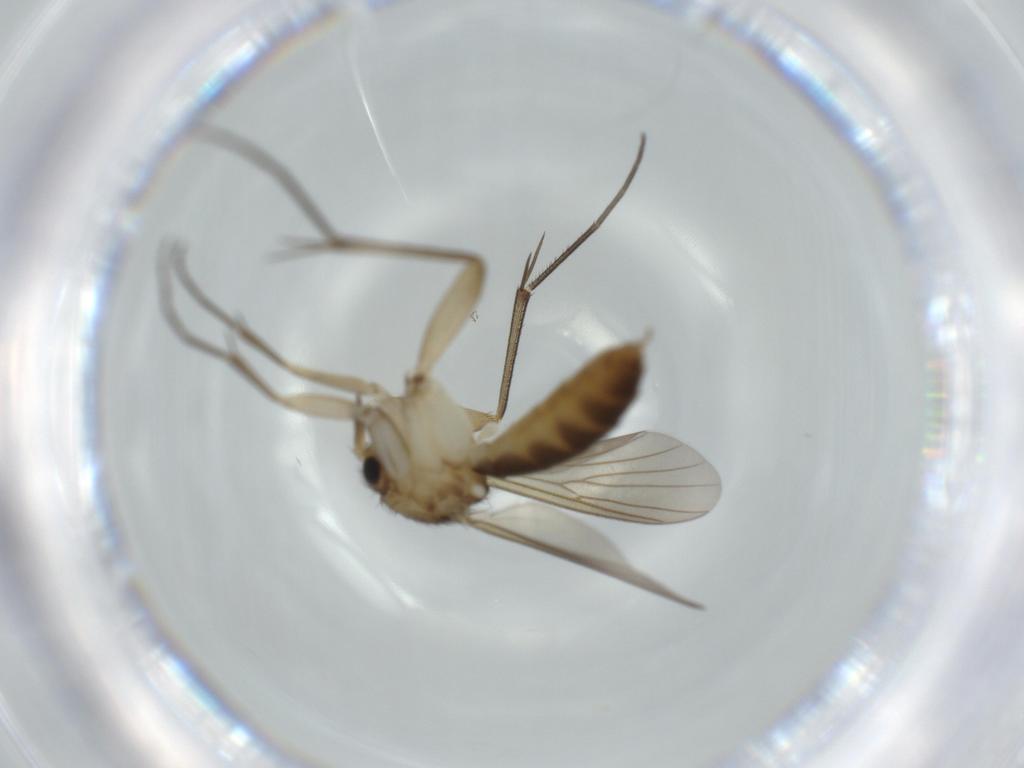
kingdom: Animalia
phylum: Arthropoda
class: Insecta
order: Diptera
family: Mycetophilidae
